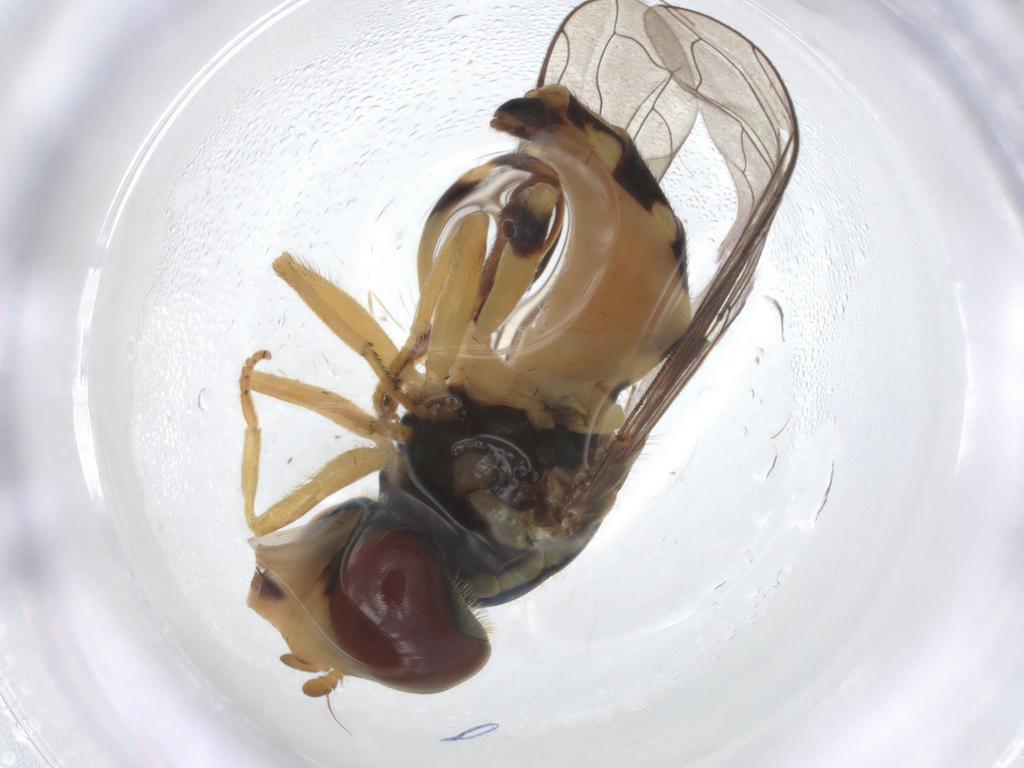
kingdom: Animalia
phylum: Arthropoda
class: Insecta
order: Diptera
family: Syrphidae
